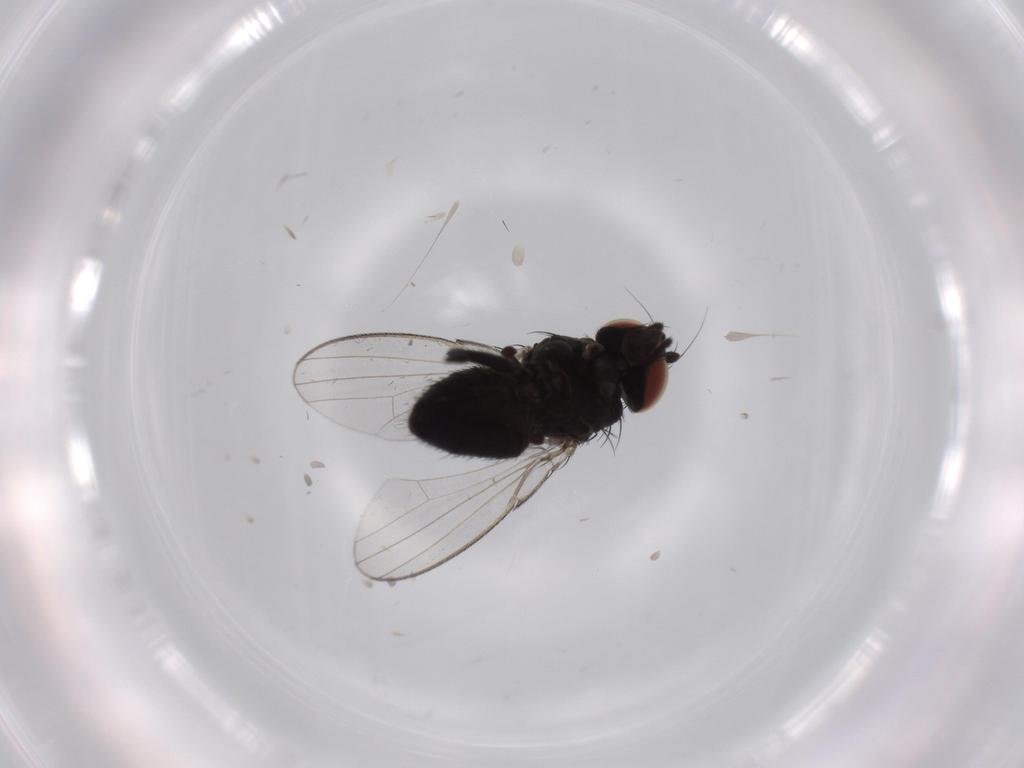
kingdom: Animalia
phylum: Arthropoda
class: Insecta
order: Diptera
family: Milichiidae
